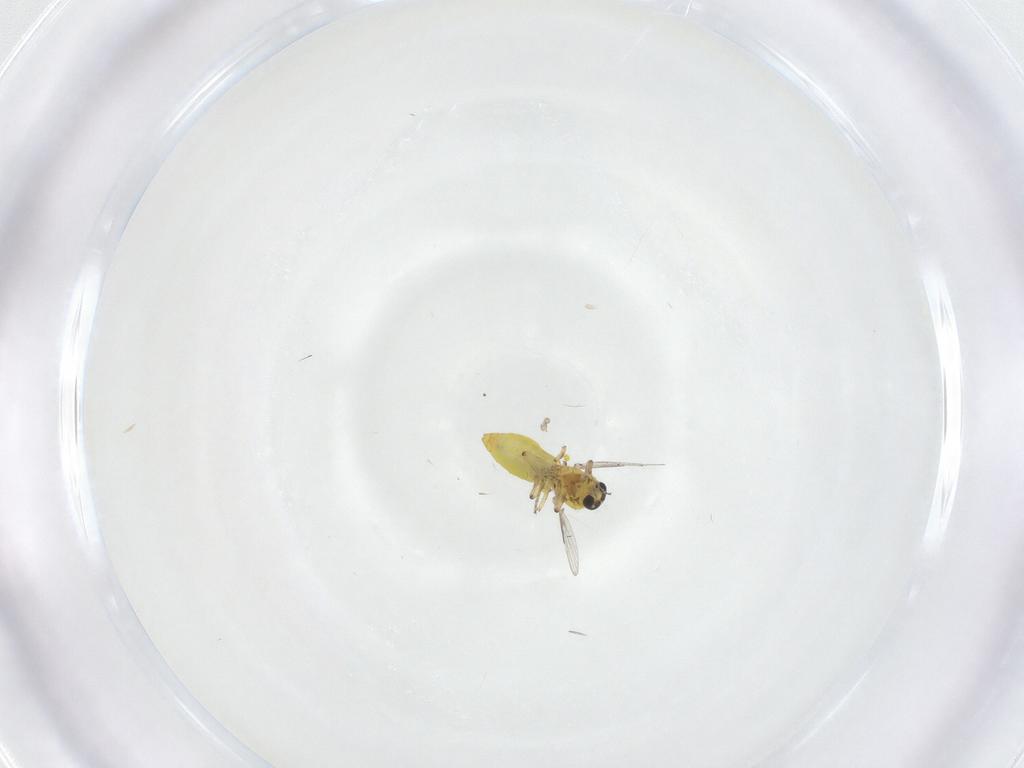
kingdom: Animalia
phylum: Arthropoda
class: Insecta
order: Diptera
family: Ceratopogonidae
